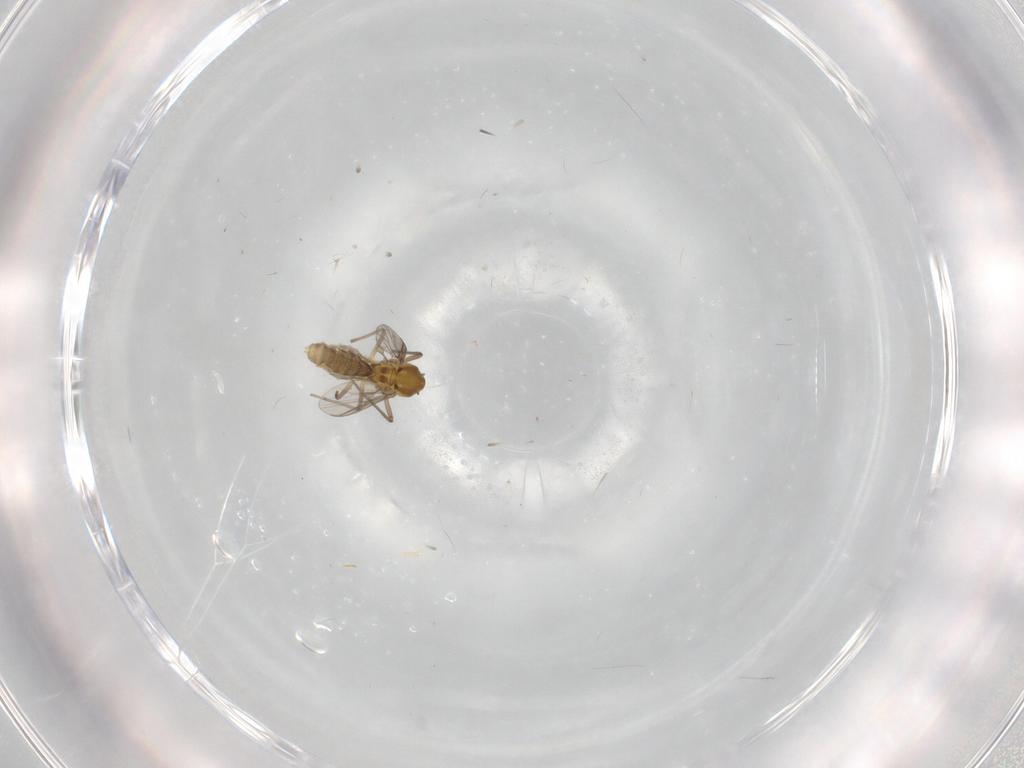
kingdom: Animalia
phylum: Arthropoda
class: Insecta
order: Diptera
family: Chironomidae
